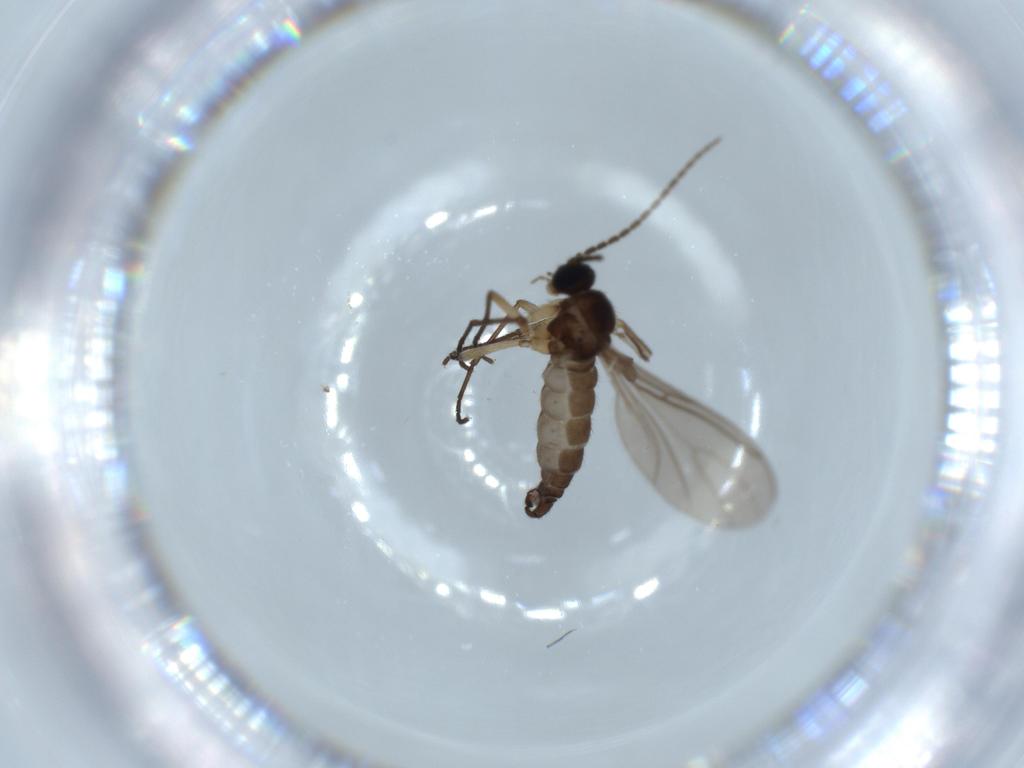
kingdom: Animalia
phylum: Arthropoda
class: Insecta
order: Diptera
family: Sciaridae
